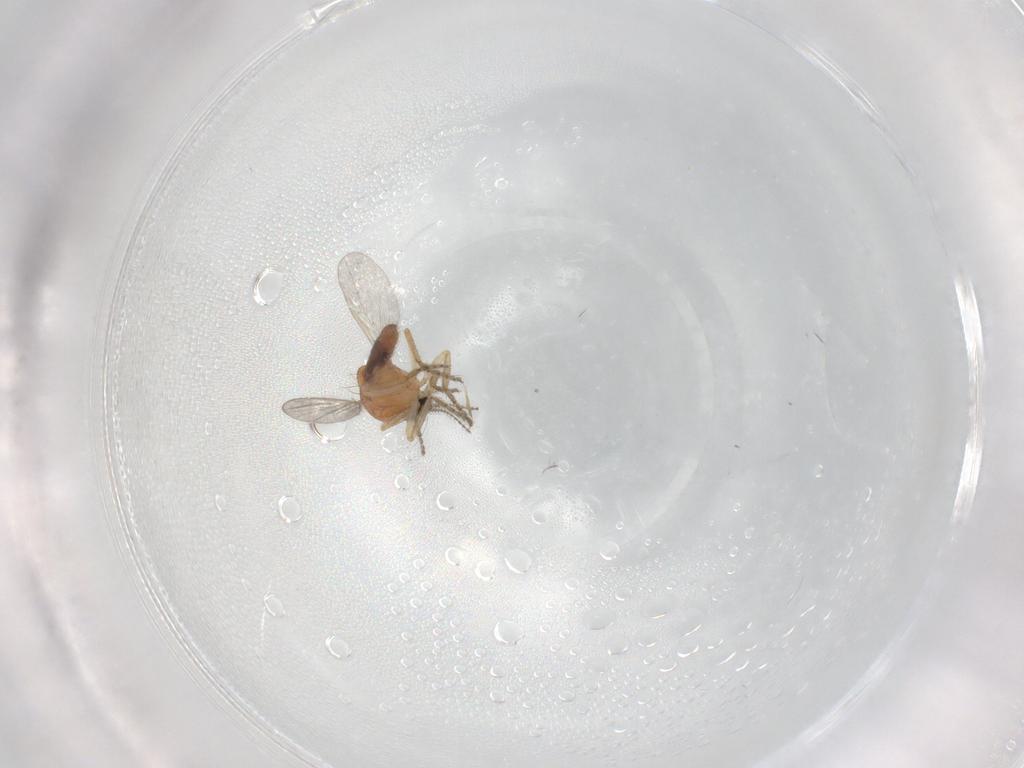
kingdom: Animalia
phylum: Arthropoda
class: Insecta
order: Diptera
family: Ceratopogonidae
